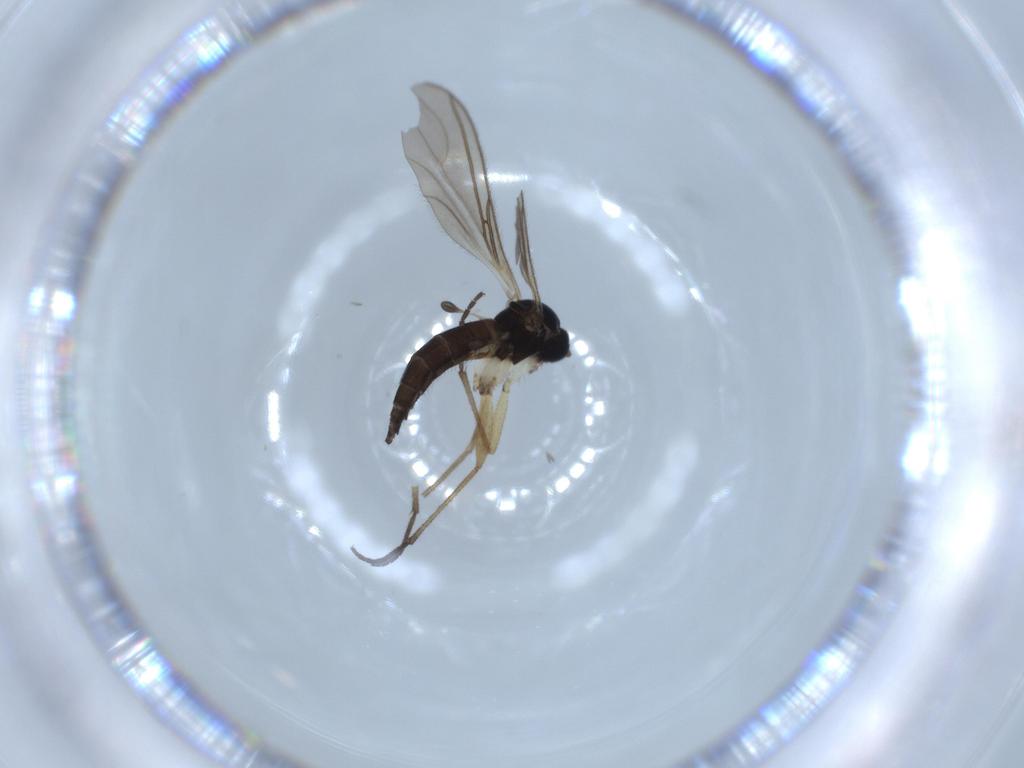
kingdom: Animalia
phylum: Arthropoda
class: Insecta
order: Diptera
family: Sciaridae
